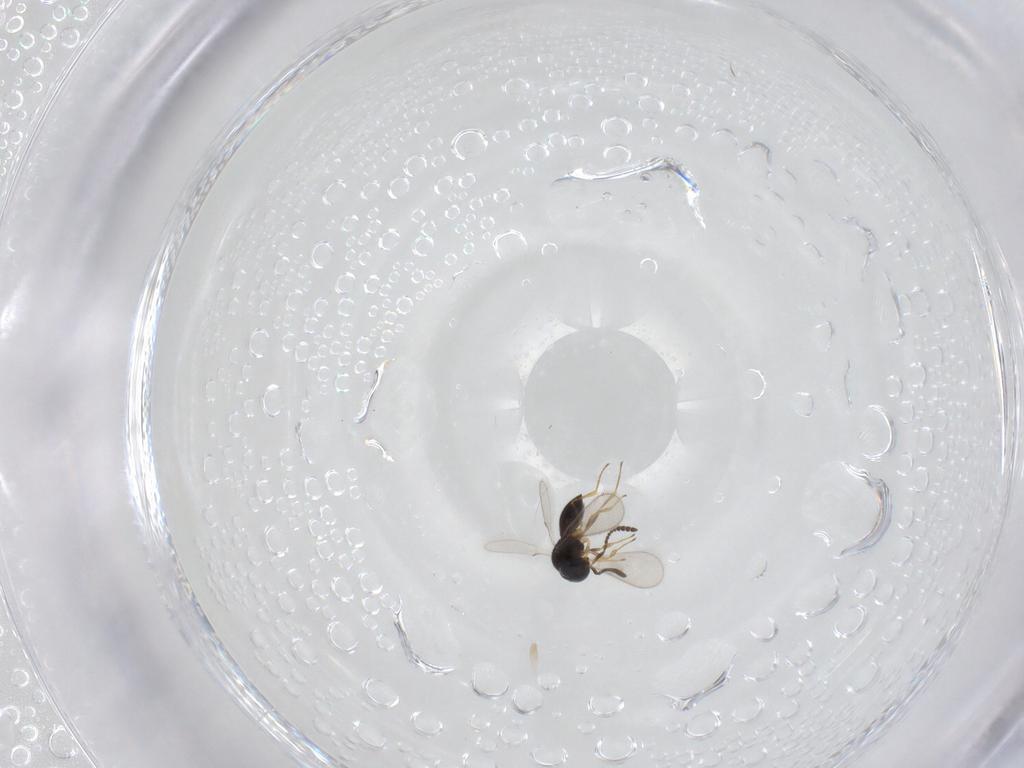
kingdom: Animalia
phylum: Arthropoda
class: Insecta
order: Hymenoptera
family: Scelionidae
